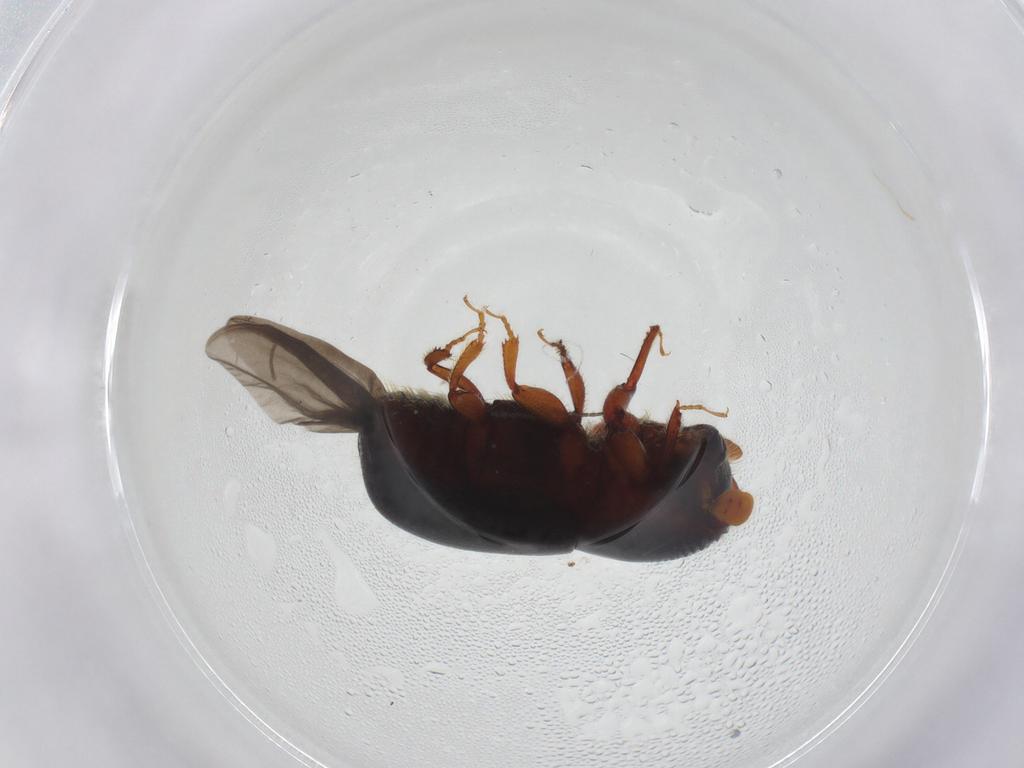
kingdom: Animalia
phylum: Arthropoda
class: Insecta
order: Coleoptera
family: Curculionidae
